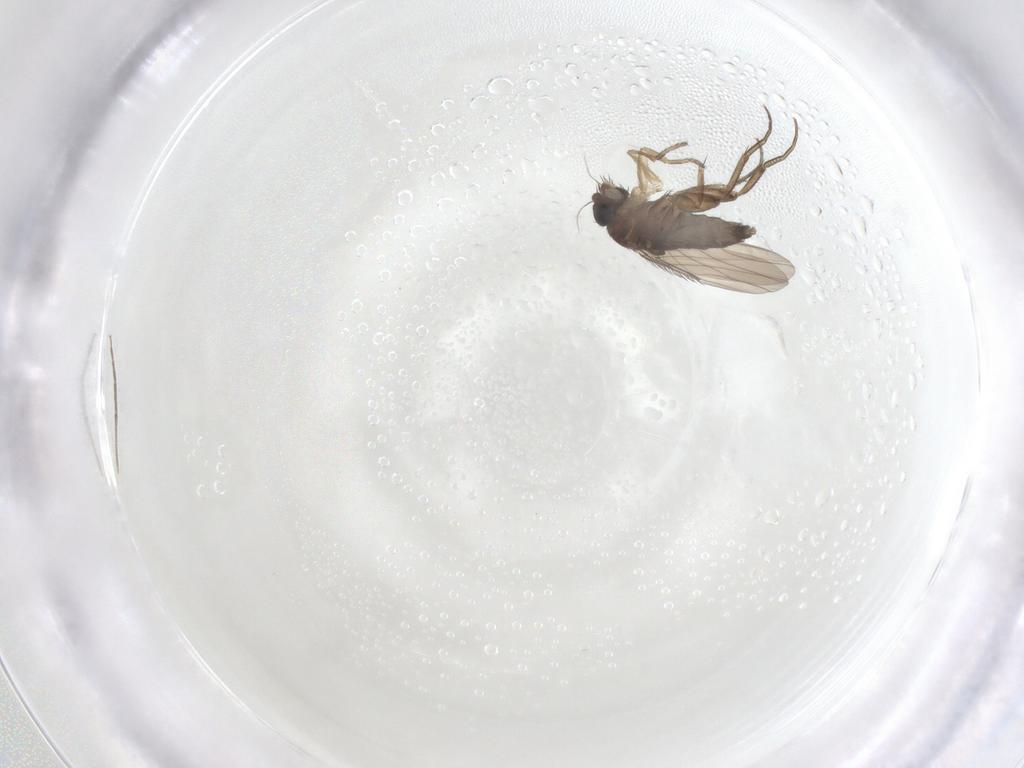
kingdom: Animalia
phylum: Arthropoda
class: Insecta
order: Diptera
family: Phoridae
